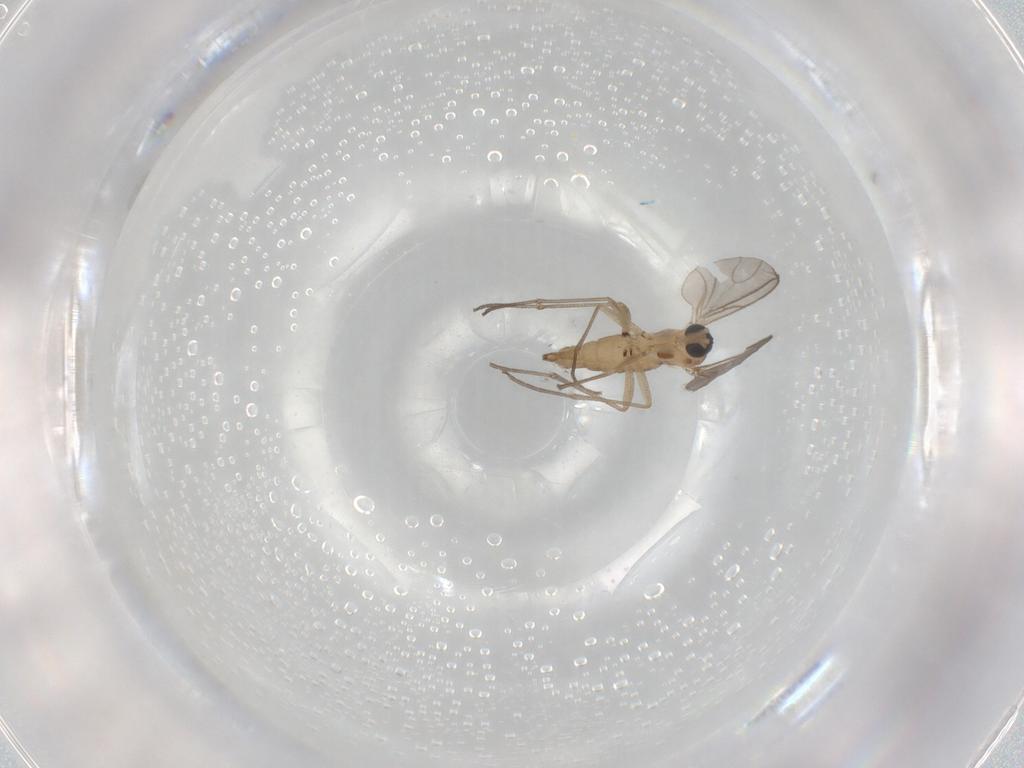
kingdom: Animalia
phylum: Arthropoda
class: Insecta
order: Diptera
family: Sciaridae
